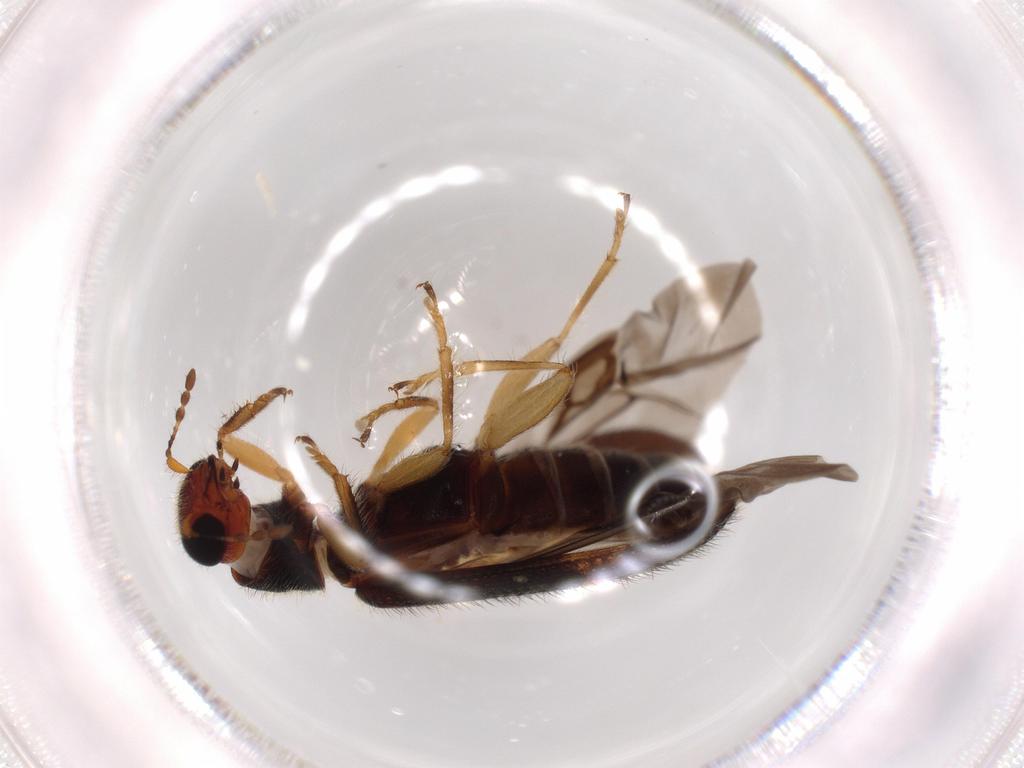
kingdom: Animalia
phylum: Arthropoda
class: Insecta
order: Coleoptera
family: Cleridae
